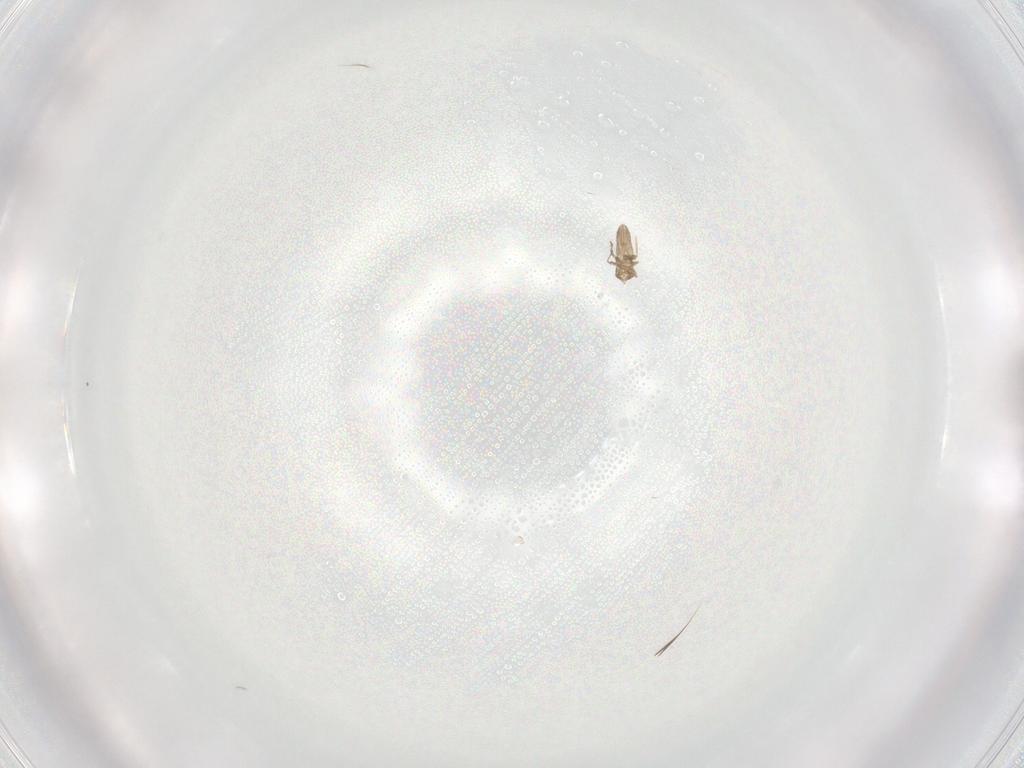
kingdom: Animalia
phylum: Arthropoda
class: Insecta
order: Hymenoptera
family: Trichogrammatidae
